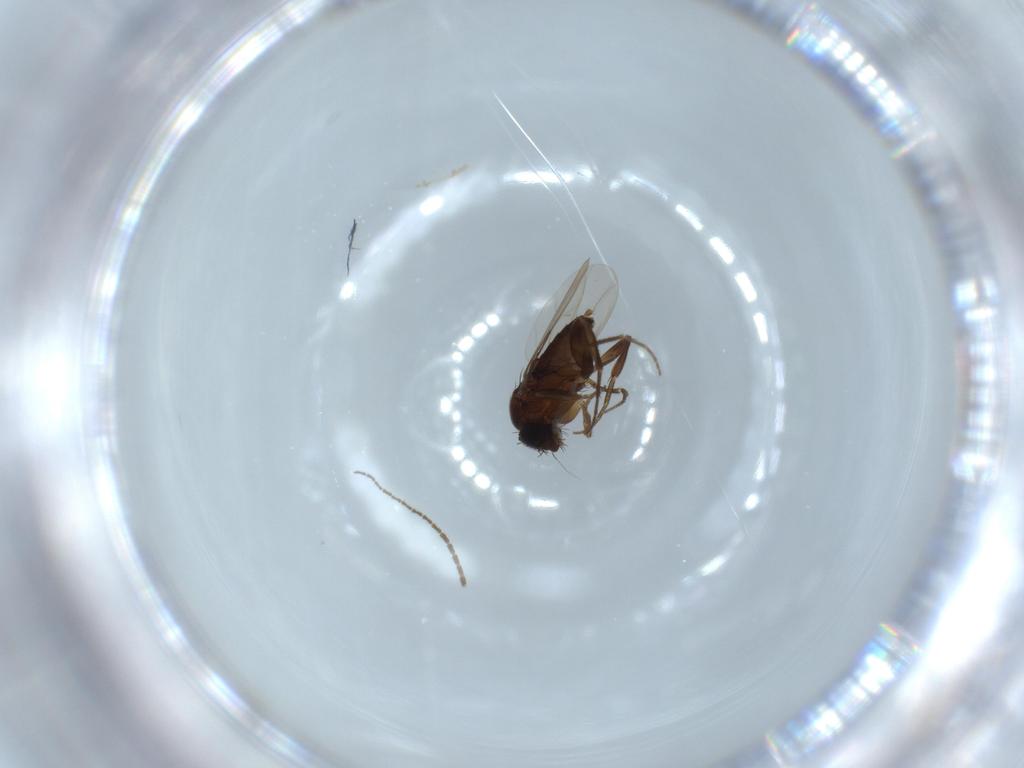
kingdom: Animalia
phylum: Arthropoda
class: Insecta
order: Diptera
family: Phoridae
